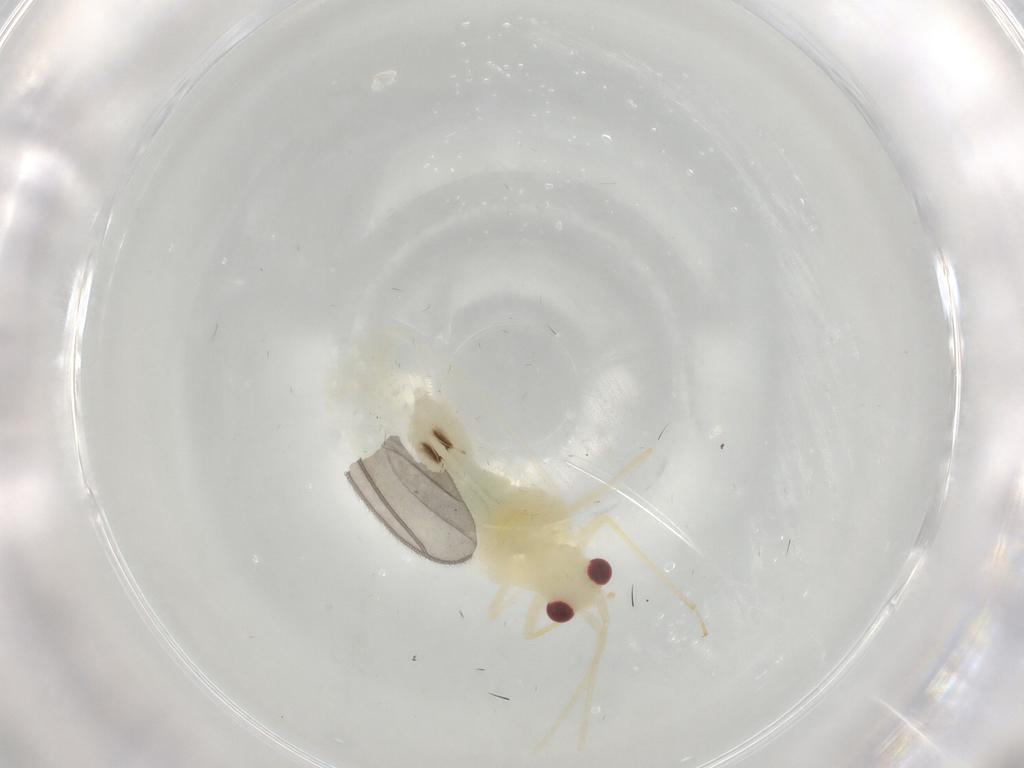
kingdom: Animalia
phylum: Arthropoda
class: Insecta
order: Hemiptera
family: Miridae
